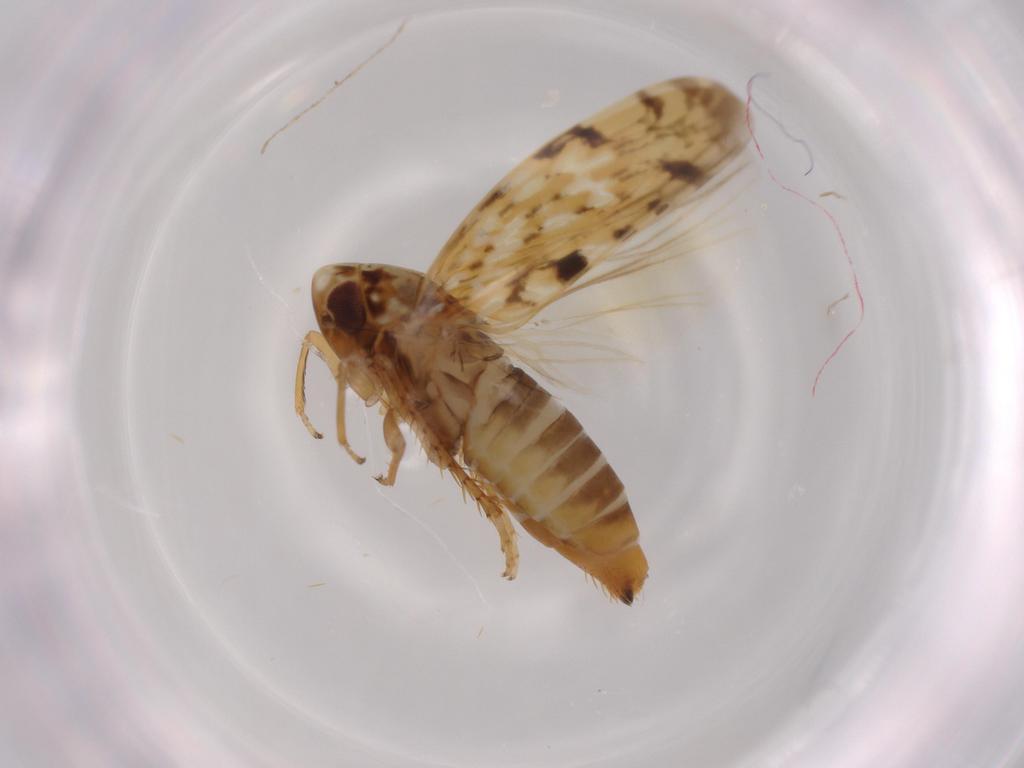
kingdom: Animalia
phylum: Arthropoda
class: Insecta
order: Hemiptera
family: Cicadellidae
